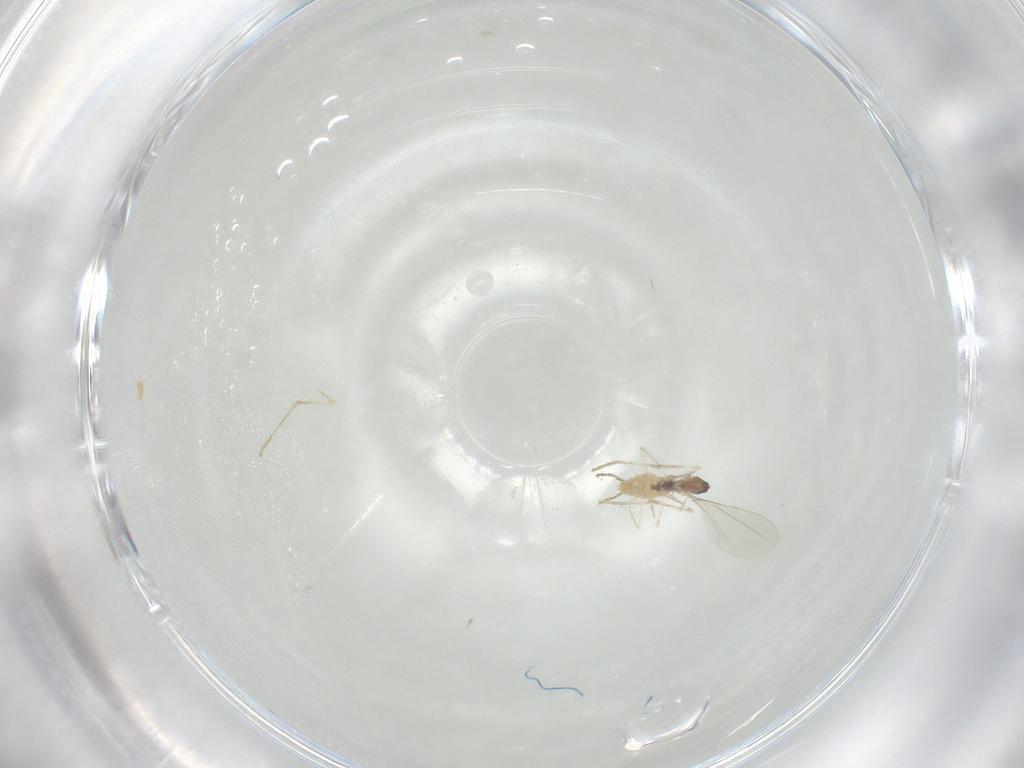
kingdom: Animalia
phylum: Arthropoda
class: Insecta
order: Diptera
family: Cecidomyiidae
